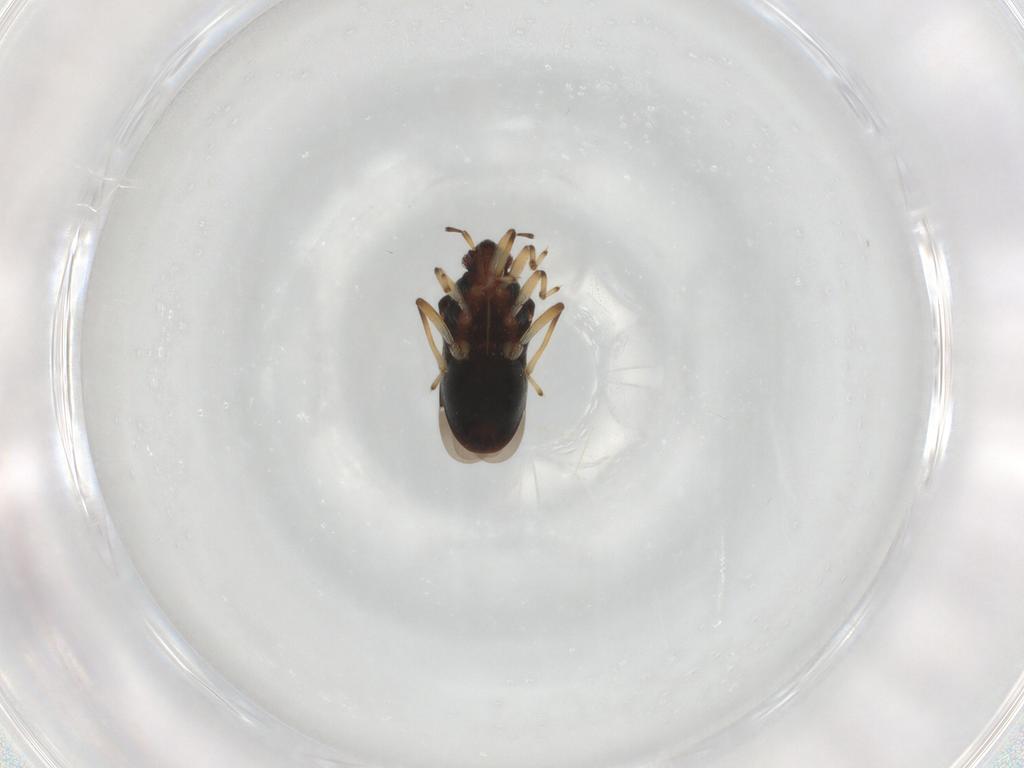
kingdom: Animalia
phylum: Arthropoda
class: Insecta
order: Hemiptera
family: Hebridae
